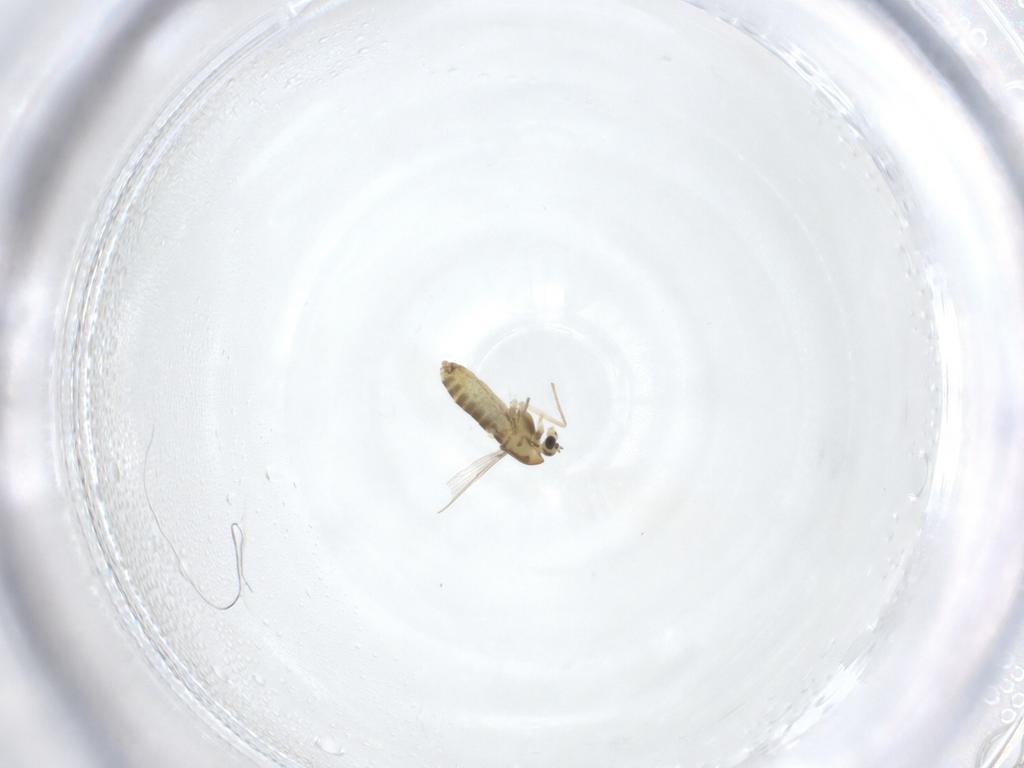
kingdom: Animalia
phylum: Arthropoda
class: Insecta
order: Diptera
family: Chironomidae
